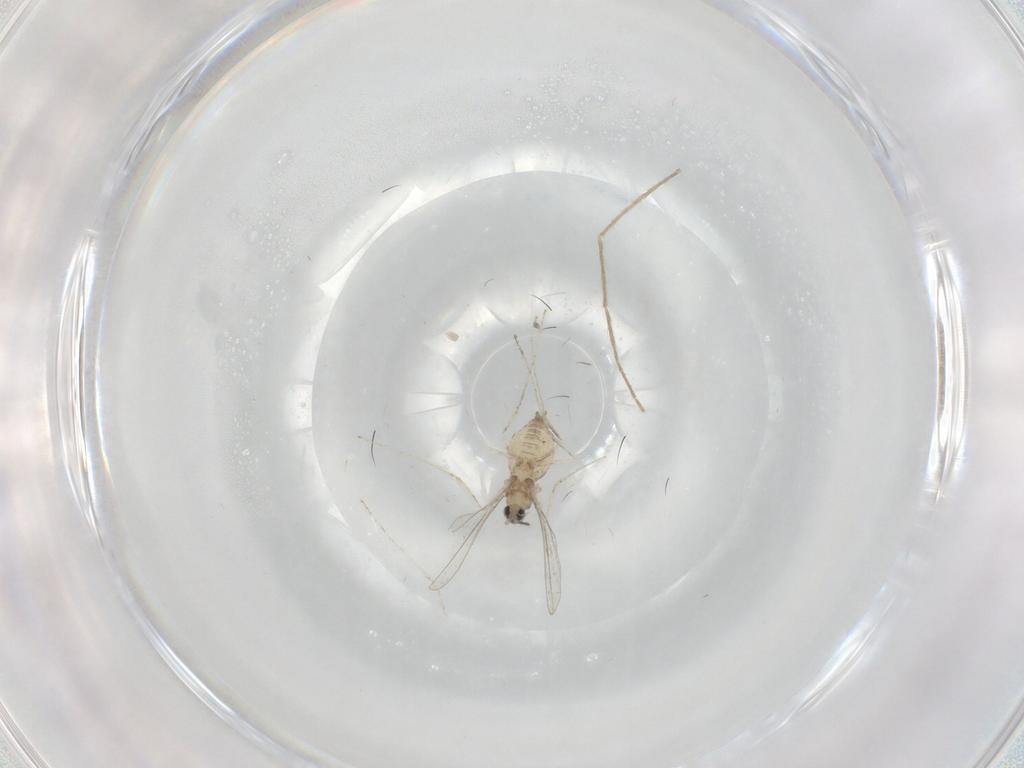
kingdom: Animalia
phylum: Arthropoda
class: Insecta
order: Diptera
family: Cecidomyiidae
